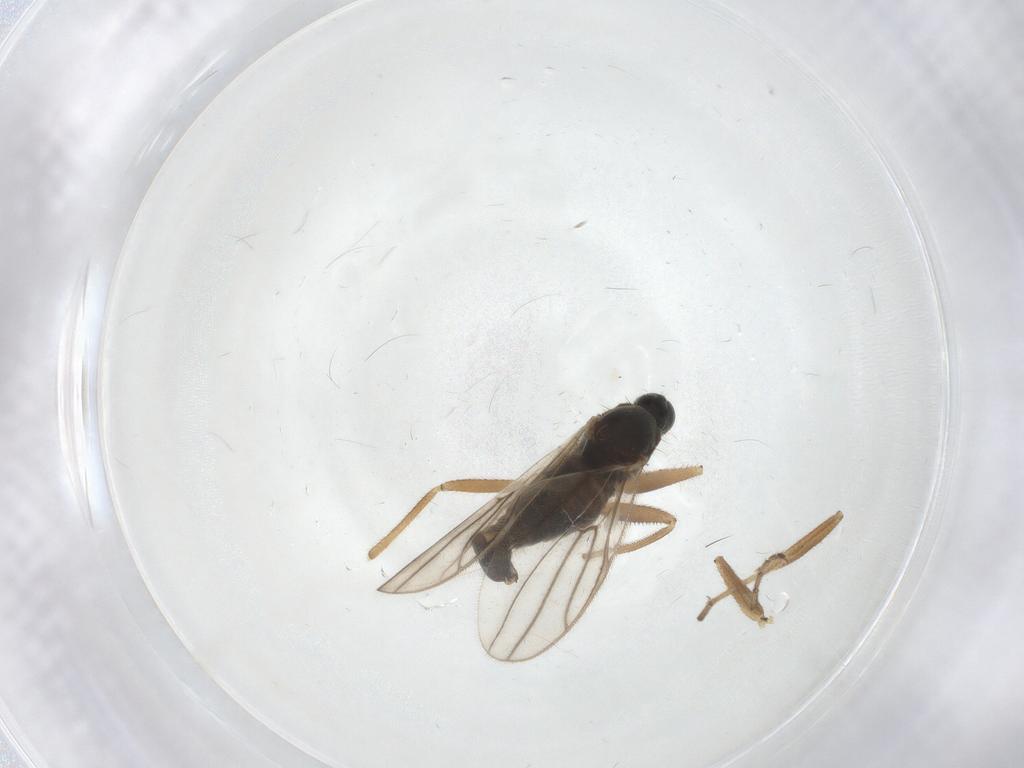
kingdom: Animalia
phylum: Arthropoda
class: Insecta
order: Diptera
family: Hybotidae
